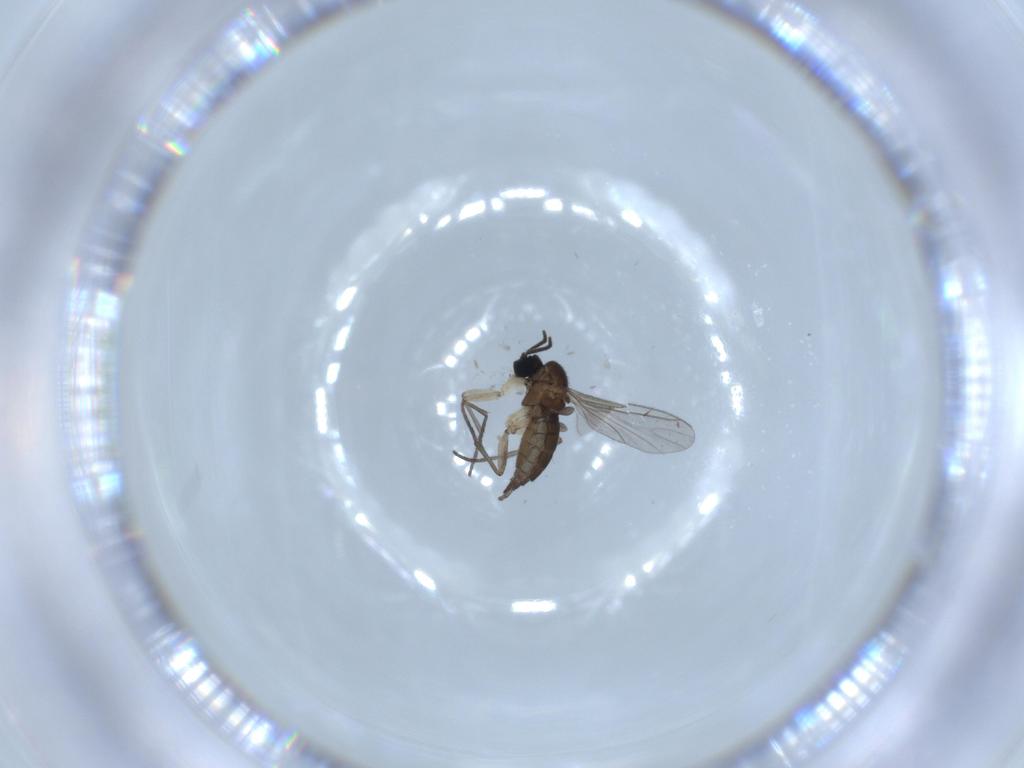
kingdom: Animalia
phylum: Arthropoda
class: Insecta
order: Diptera
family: Sciaridae
